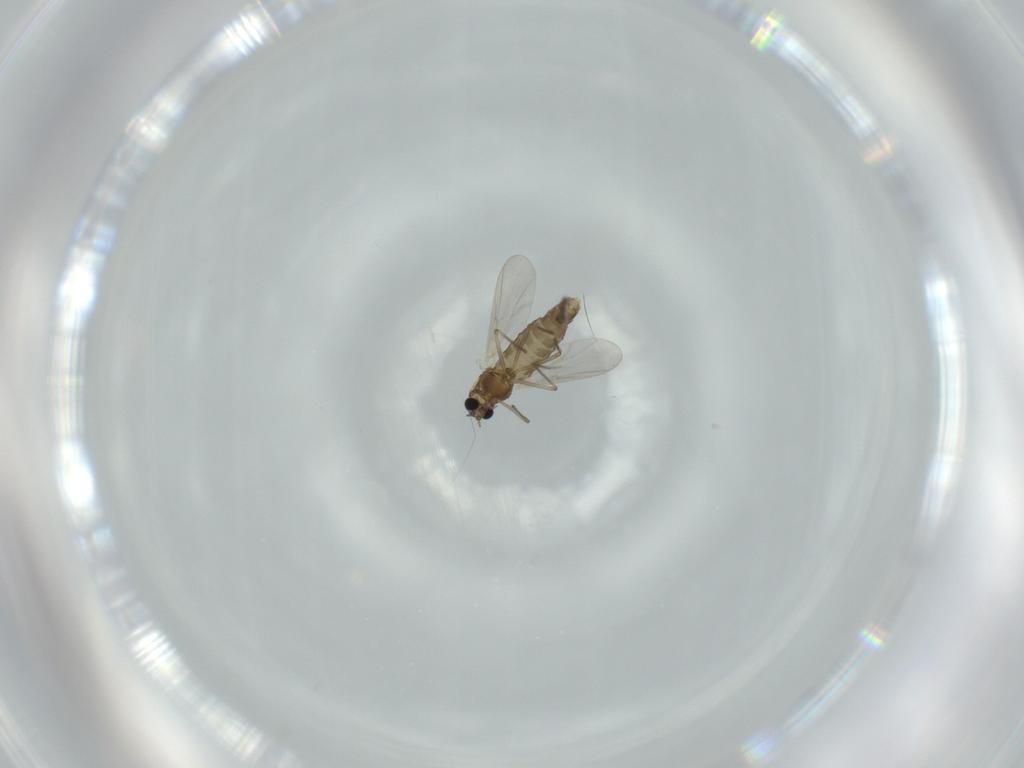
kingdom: Animalia
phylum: Arthropoda
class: Insecta
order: Diptera
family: Chironomidae
